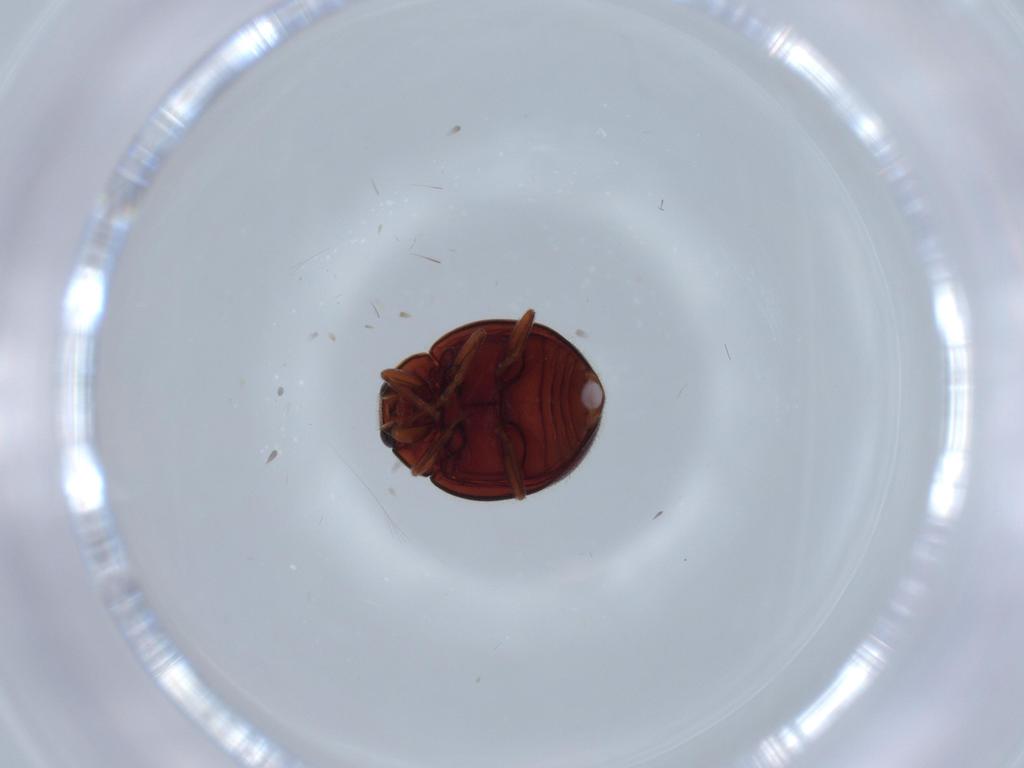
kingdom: Animalia
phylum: Arthropoda
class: Insecta
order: Coleoptera
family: Coccinellidae
